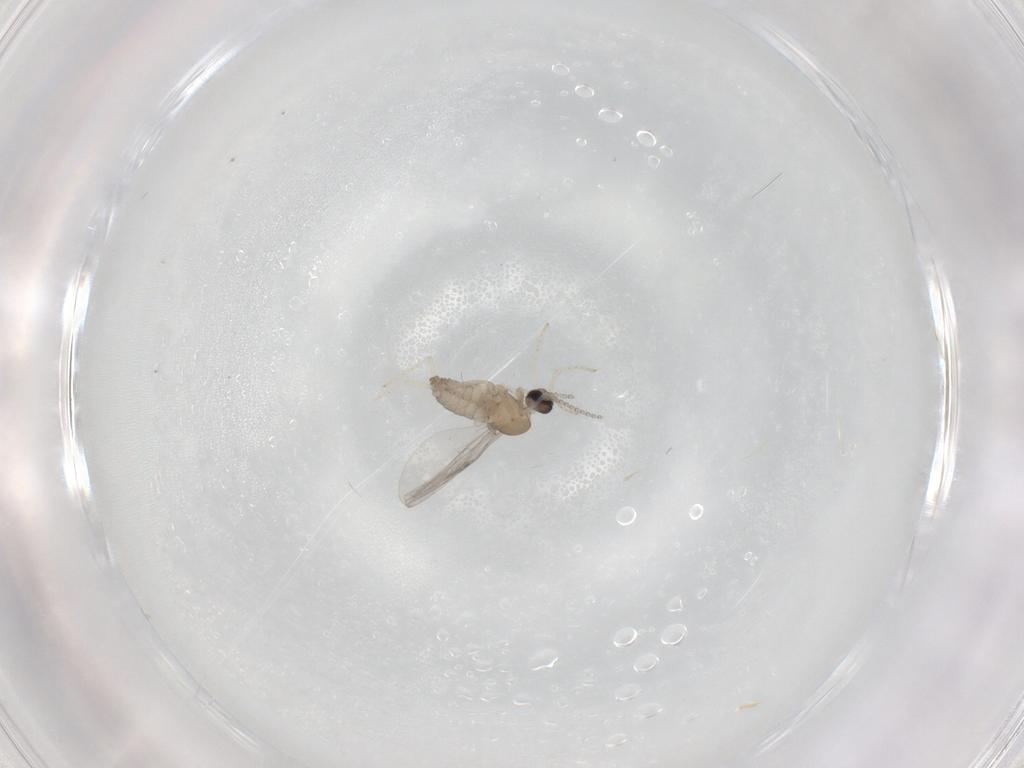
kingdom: Animalia
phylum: Arthropoda
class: Insecta
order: Diptera
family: Cecidomyiidae
